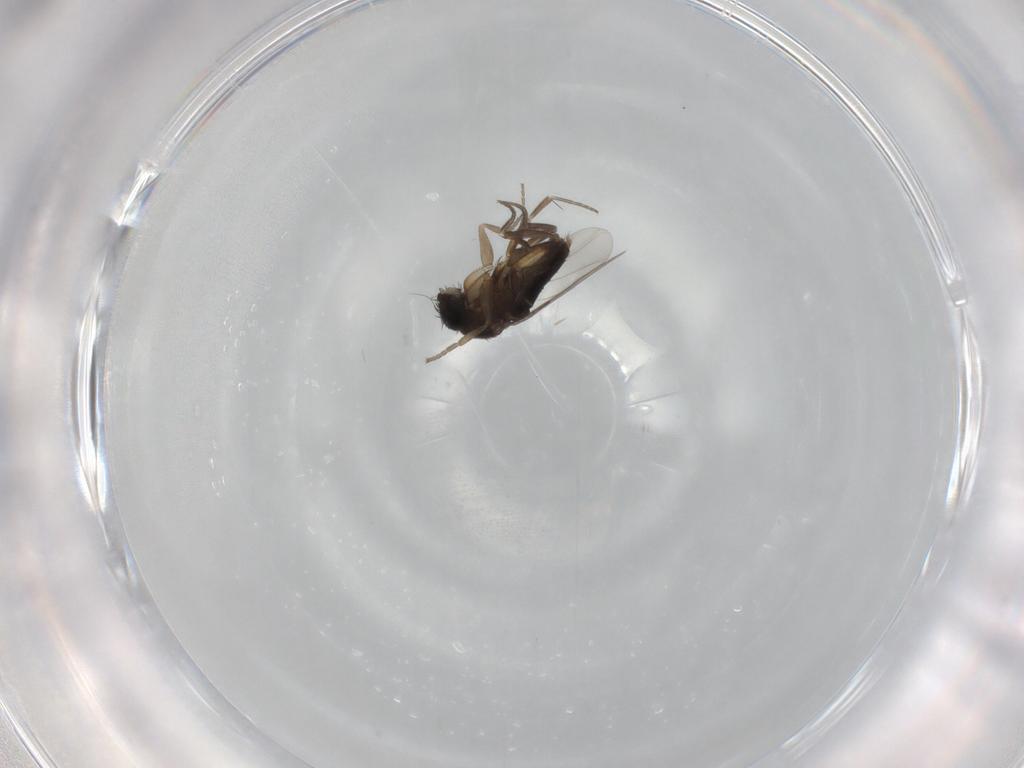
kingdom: Animalia
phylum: Arthropoda
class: Insecta
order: Diptera
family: Phoridae
